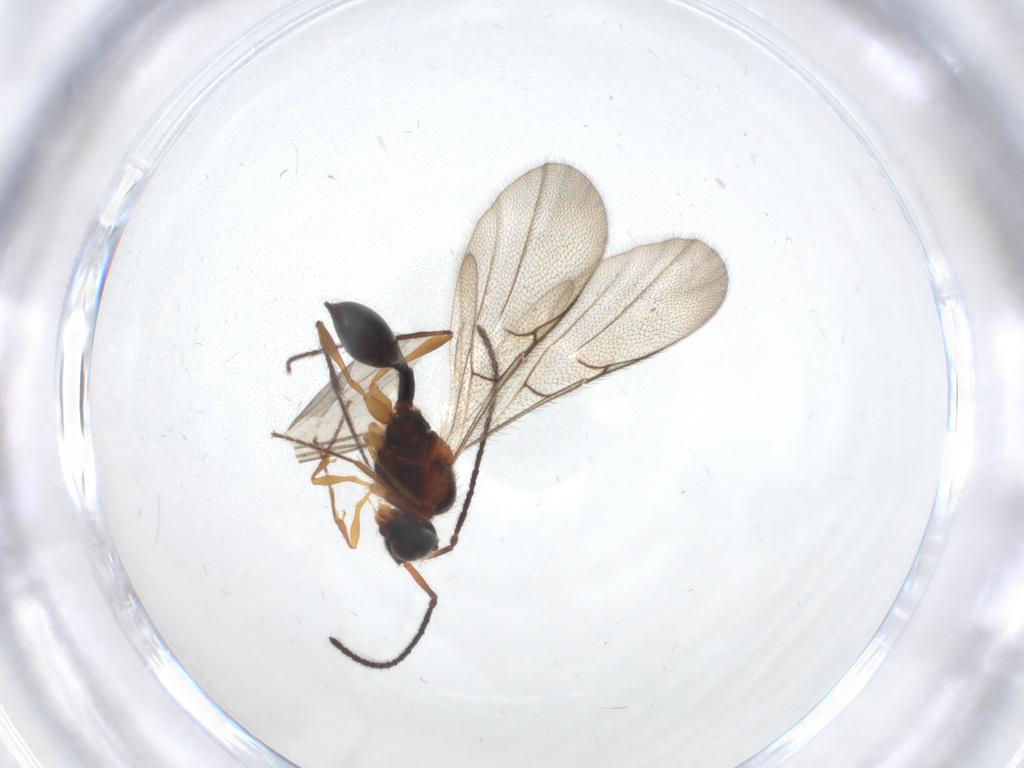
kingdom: Animalia
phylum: Arthropoda
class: Insecta
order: Hymenoptera
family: Diapriidae
